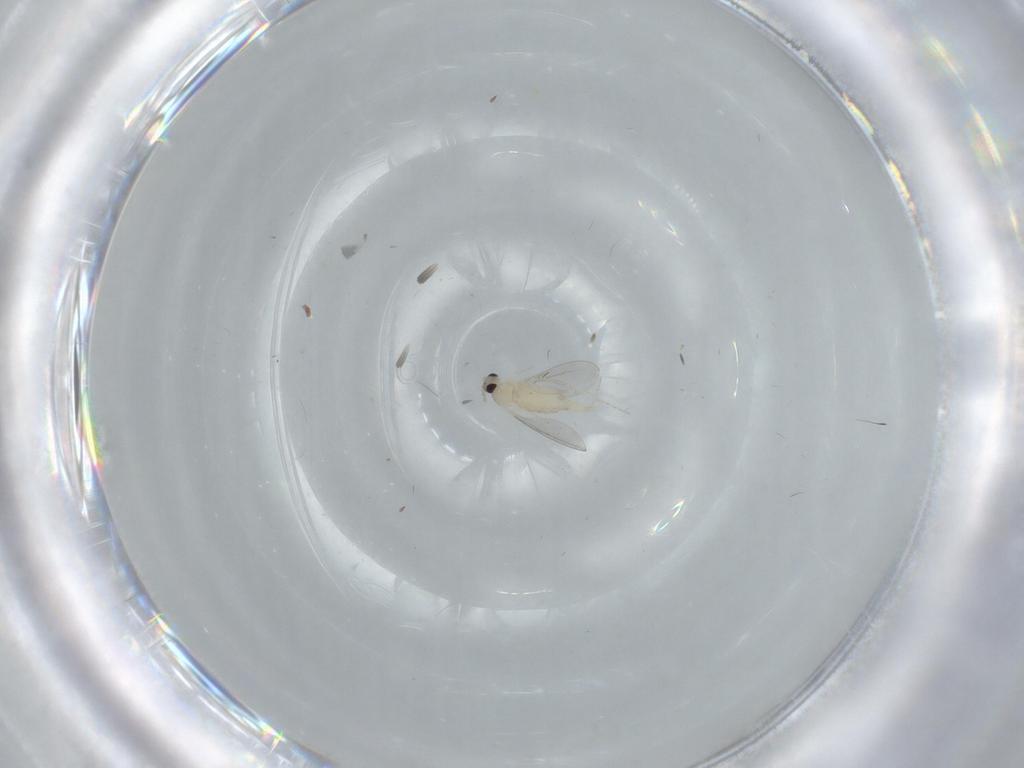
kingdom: Animalia
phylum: Arthropoda
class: Insecta
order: Diptera
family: Cecidomyiidae
